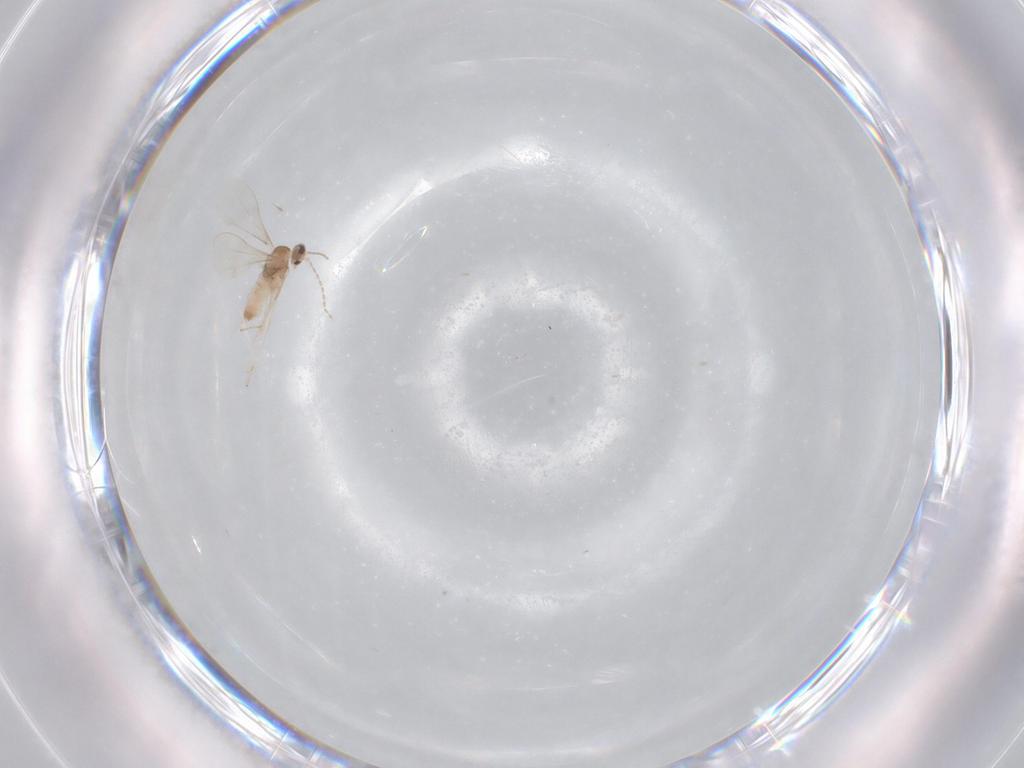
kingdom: Animalia
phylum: Arthropoda
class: Insecta
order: Diptera
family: Cecidomyiidae
